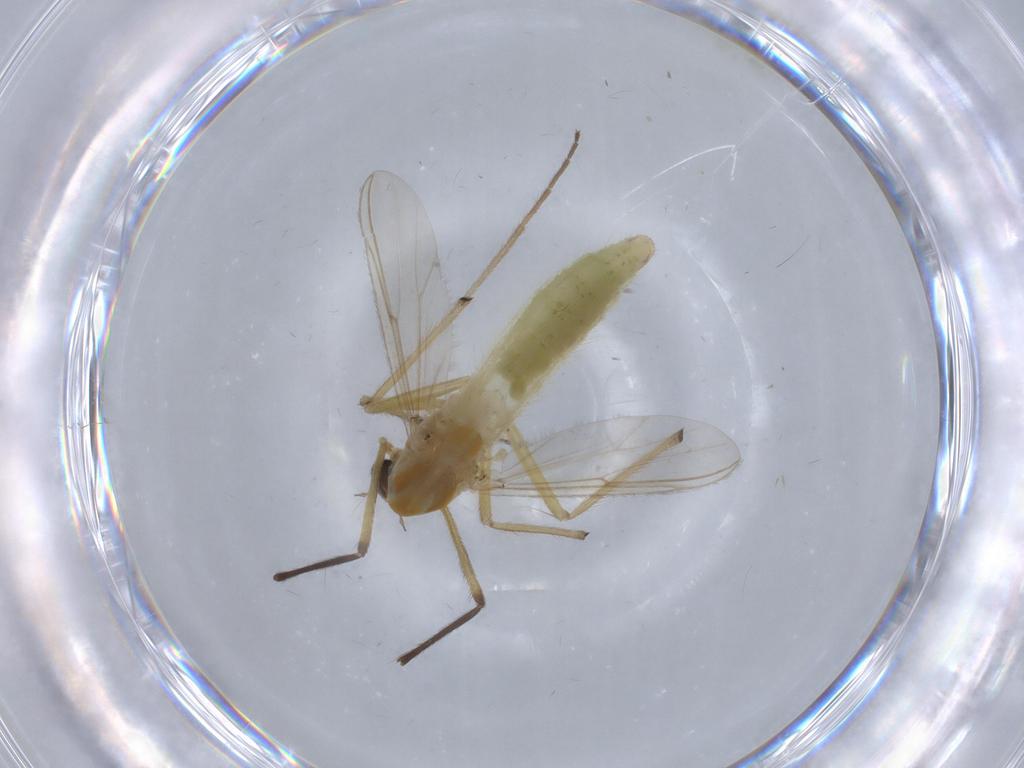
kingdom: Animalia
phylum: Arthropoda
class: Insecta
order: Diptera
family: Chironomidae
